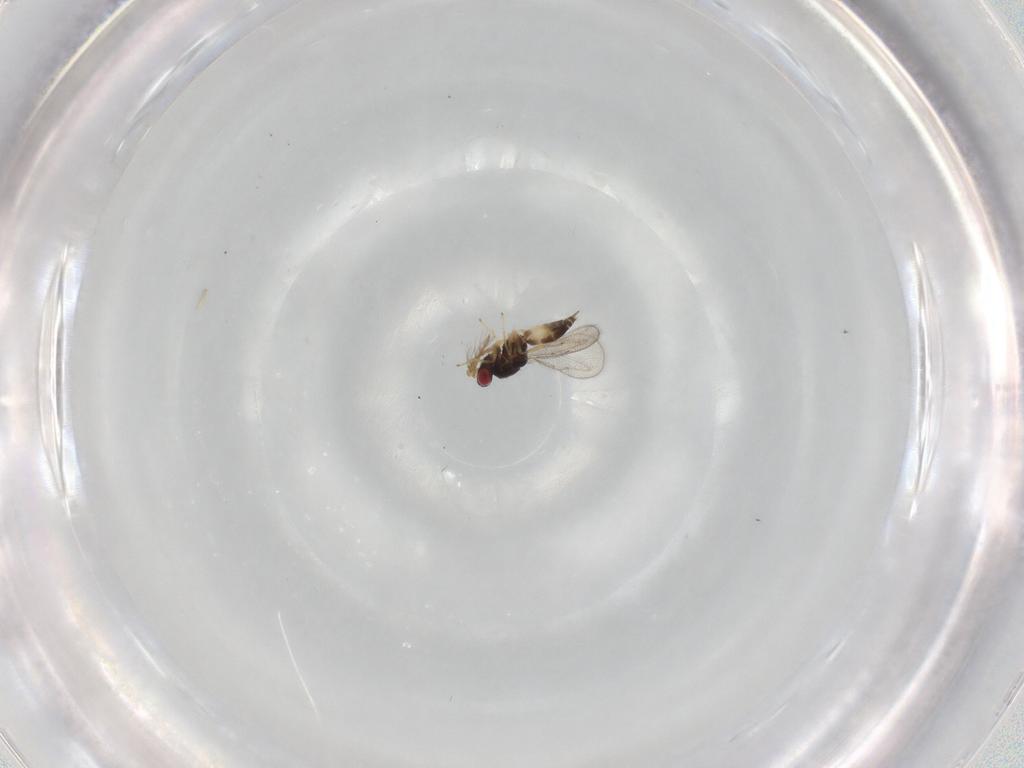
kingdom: Animalia
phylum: Arthropoda
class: Insecta
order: Hymenoptera
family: Eulophidae
